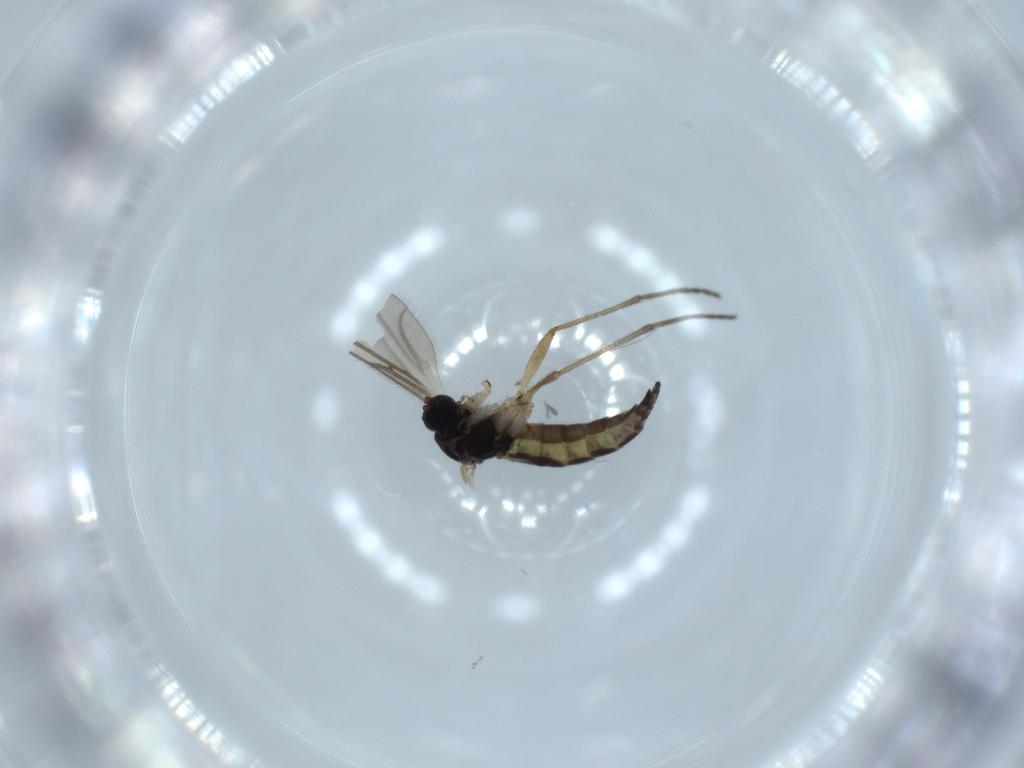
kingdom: Animalia
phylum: Arthropoda
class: Insecta
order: Diptera
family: Sciaridae
